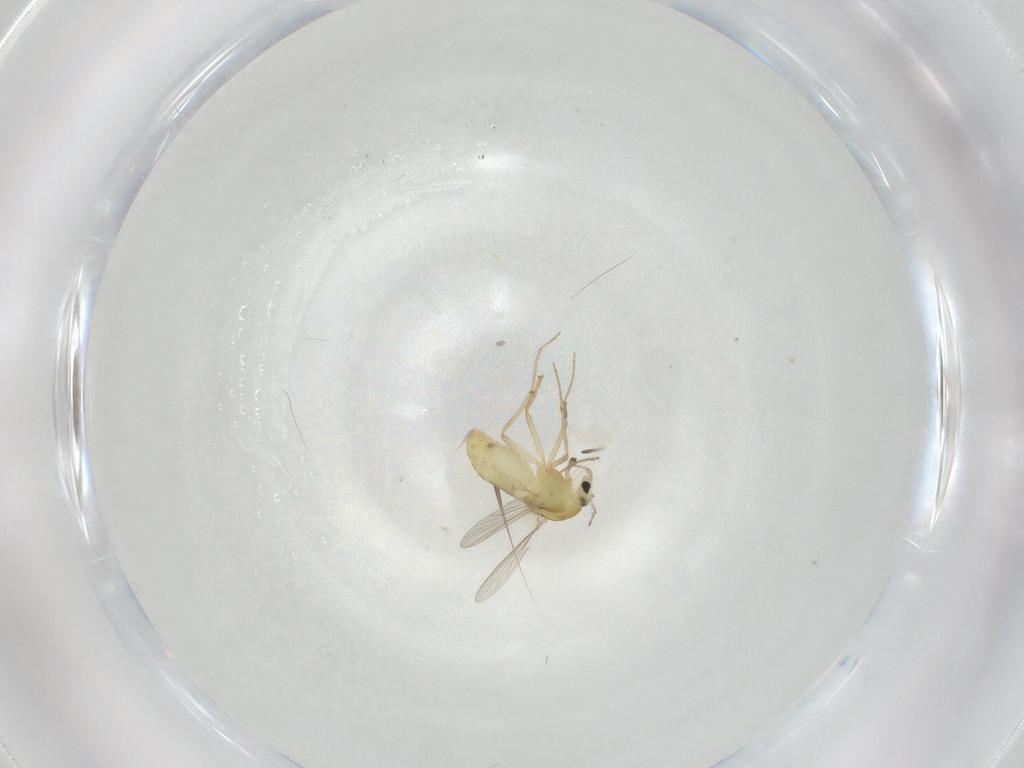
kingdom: Animalia
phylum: Arthropoda
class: Insecta
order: Diptera
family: Chironomidae
